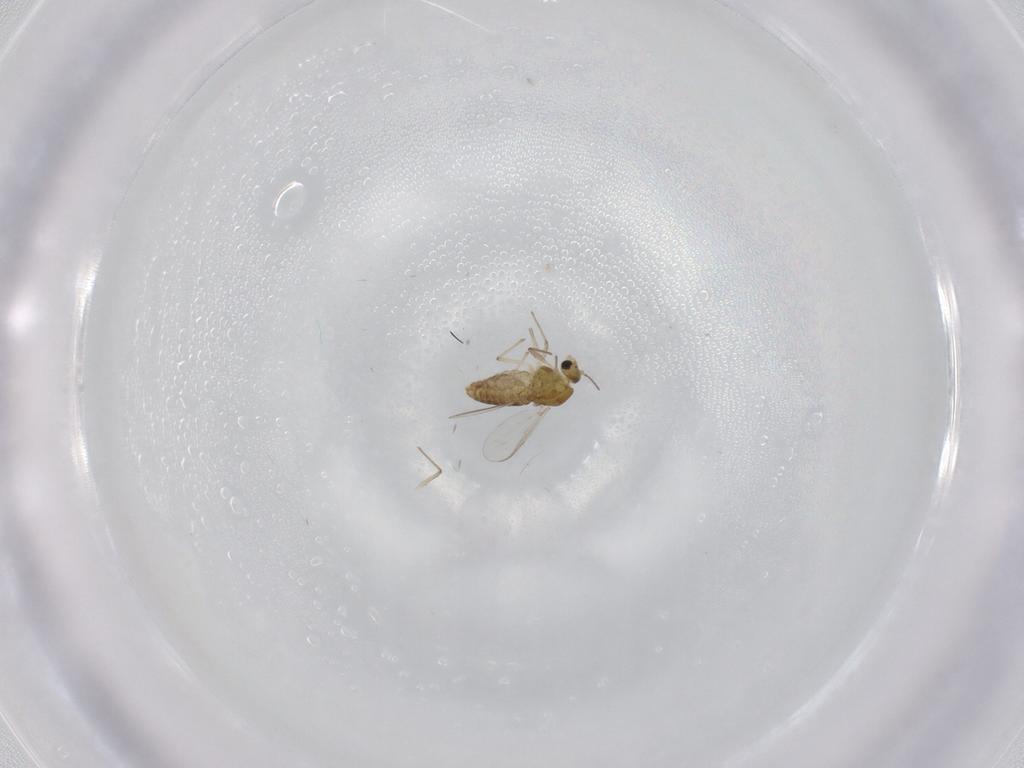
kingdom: Animalia
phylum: Arthropoda
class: Insecta
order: Diptera
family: Chironomidae
